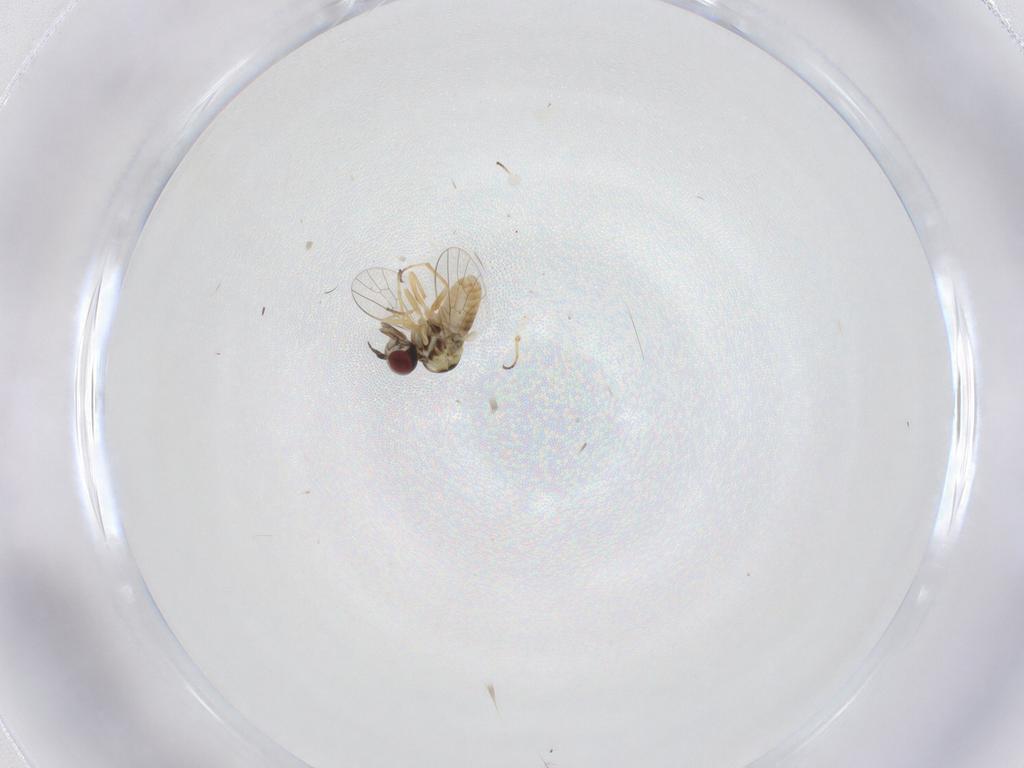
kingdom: Animalia
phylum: Arthropoda
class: Insecta
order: Diptera
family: Bombyliidae
